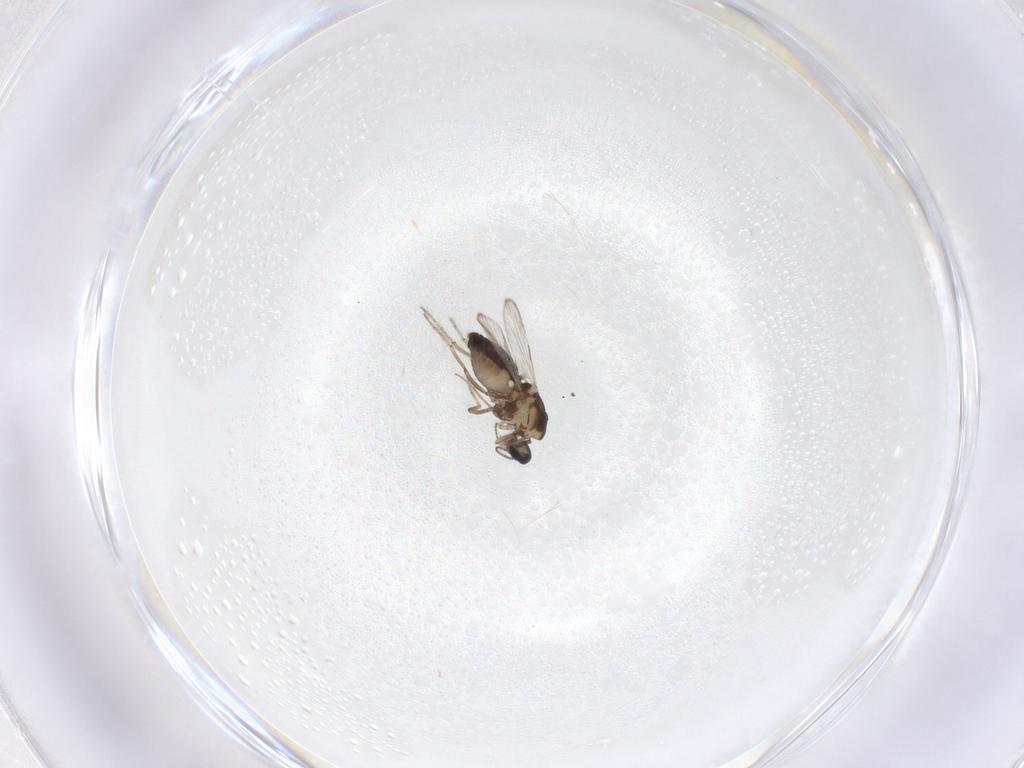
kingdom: Animalia
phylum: Arthropoda
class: Insecta
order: Diptera
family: Ceratopogonidae
